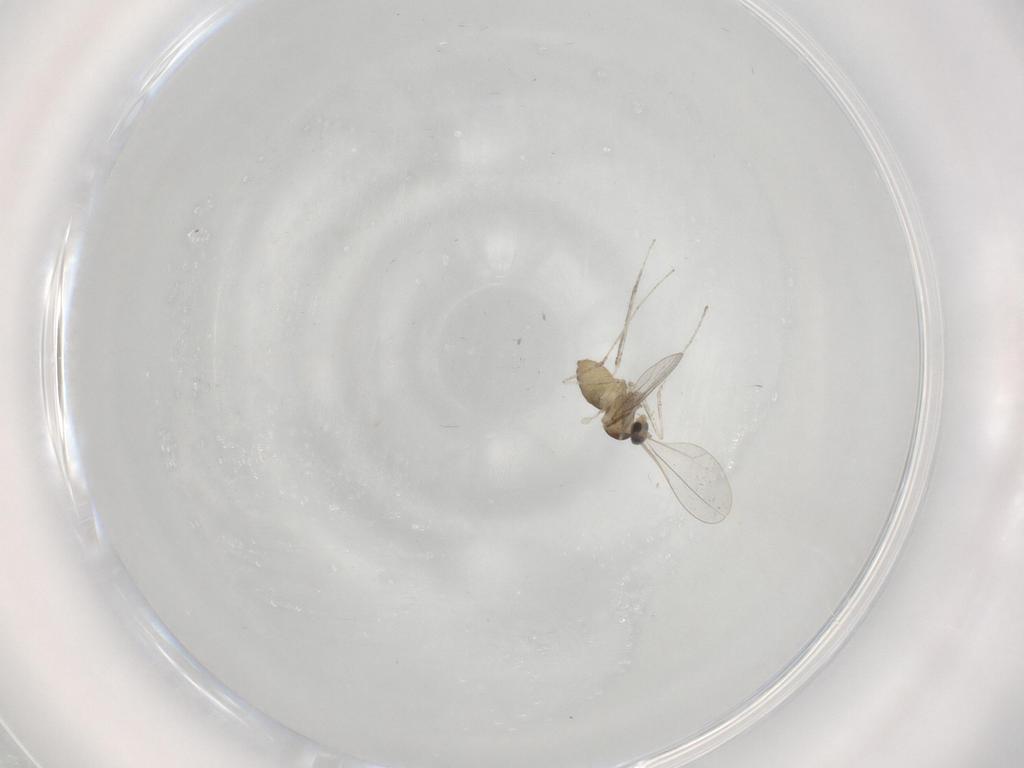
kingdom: Animalia
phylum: Arthropoda
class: Insecta
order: Diptera
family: Cecidomyiidae
